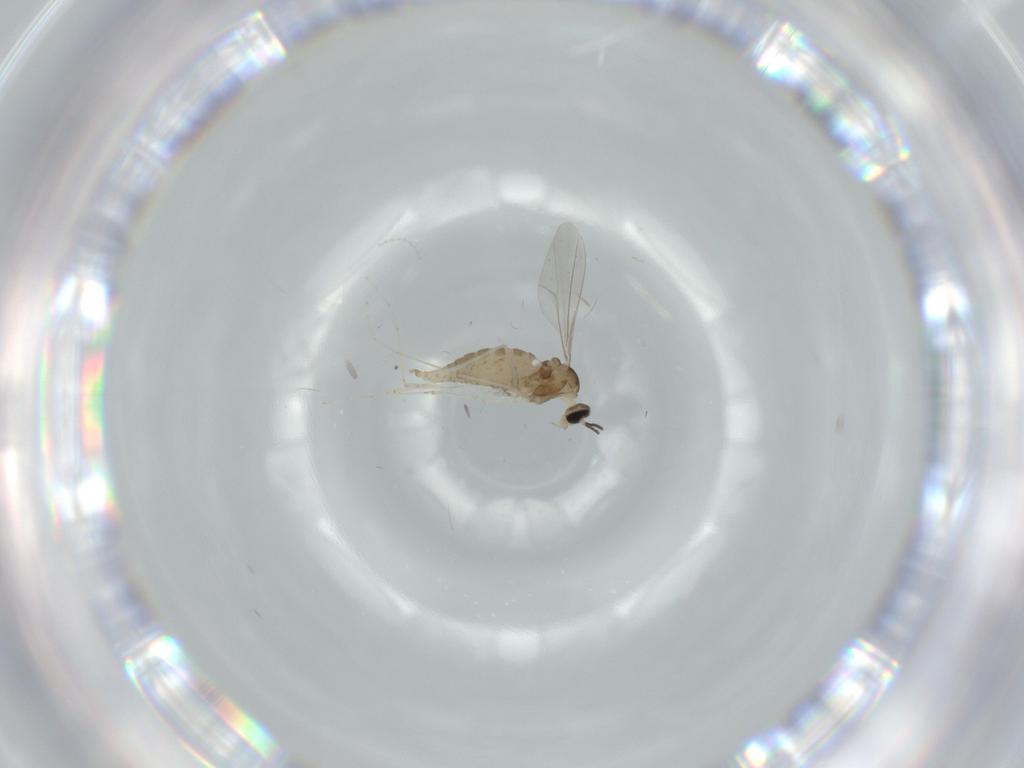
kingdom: Animalia
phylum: Arthropoda
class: Insecta
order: Diptera
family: Cecidomyiidae
